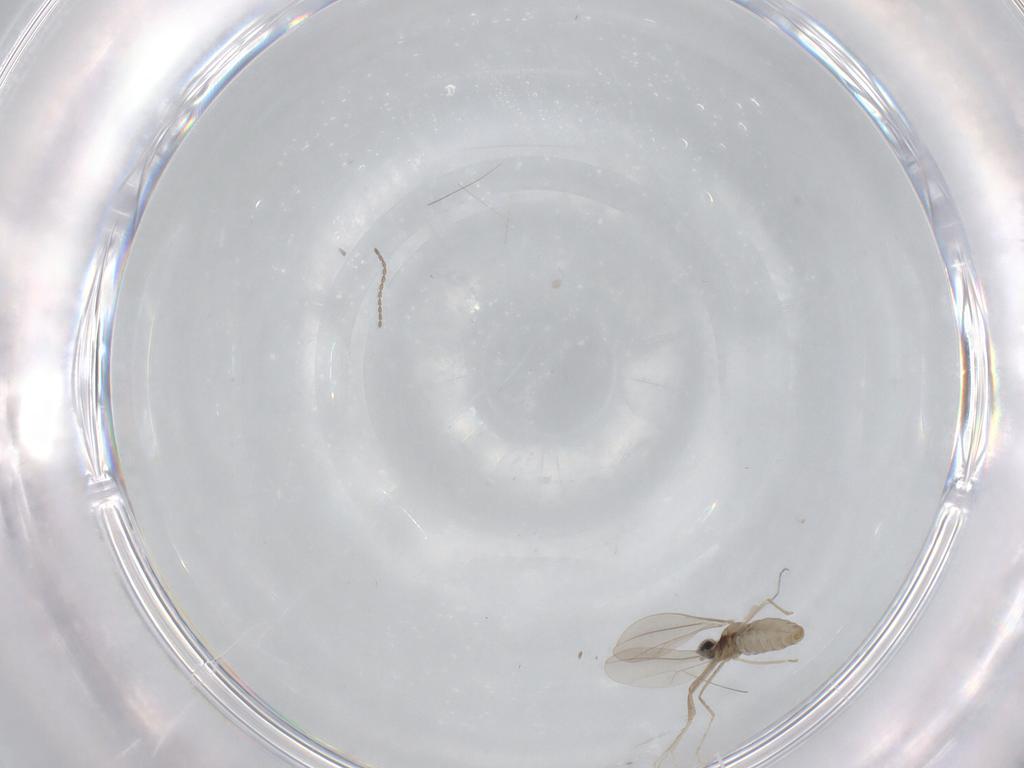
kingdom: Animalia
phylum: Arthropoda
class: Insecta
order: Diptera
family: Cecidomyiidae
